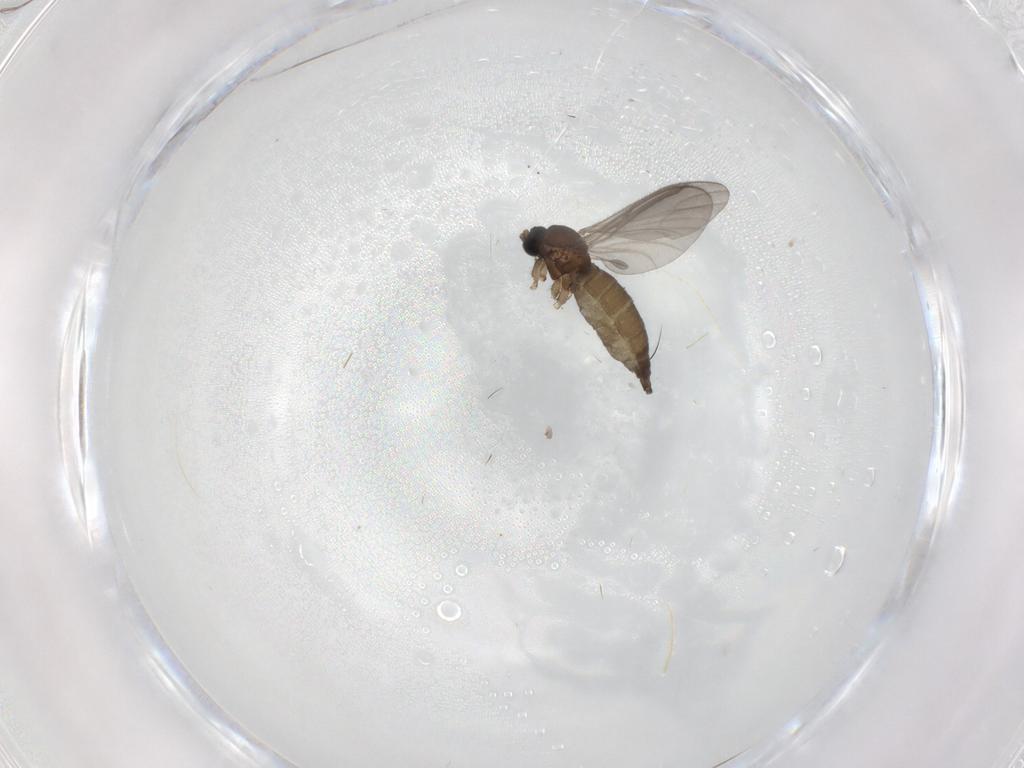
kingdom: Animalia
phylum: Arthropoda
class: Insecta
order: Diptera
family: Sciaridae
